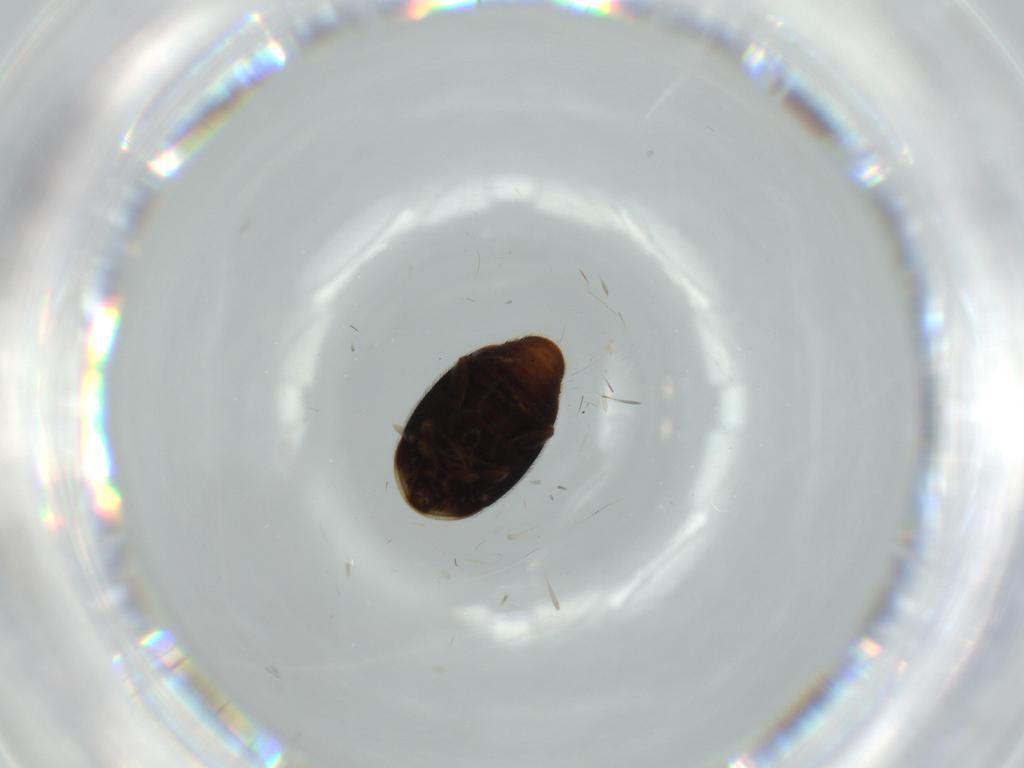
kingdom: Animalia
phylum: Arthropoda
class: Insecta
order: Coleoptera
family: Corylophidae
